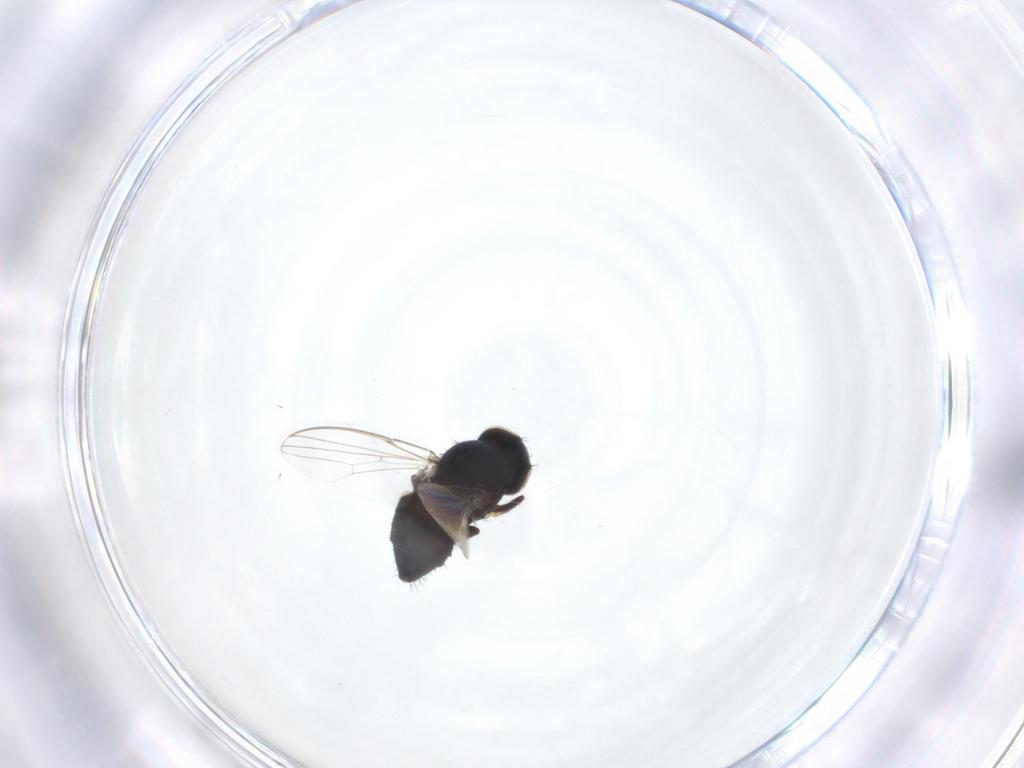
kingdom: Animalia
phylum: Arthropoda
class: Insecta
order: Diptera
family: Chloropidae
